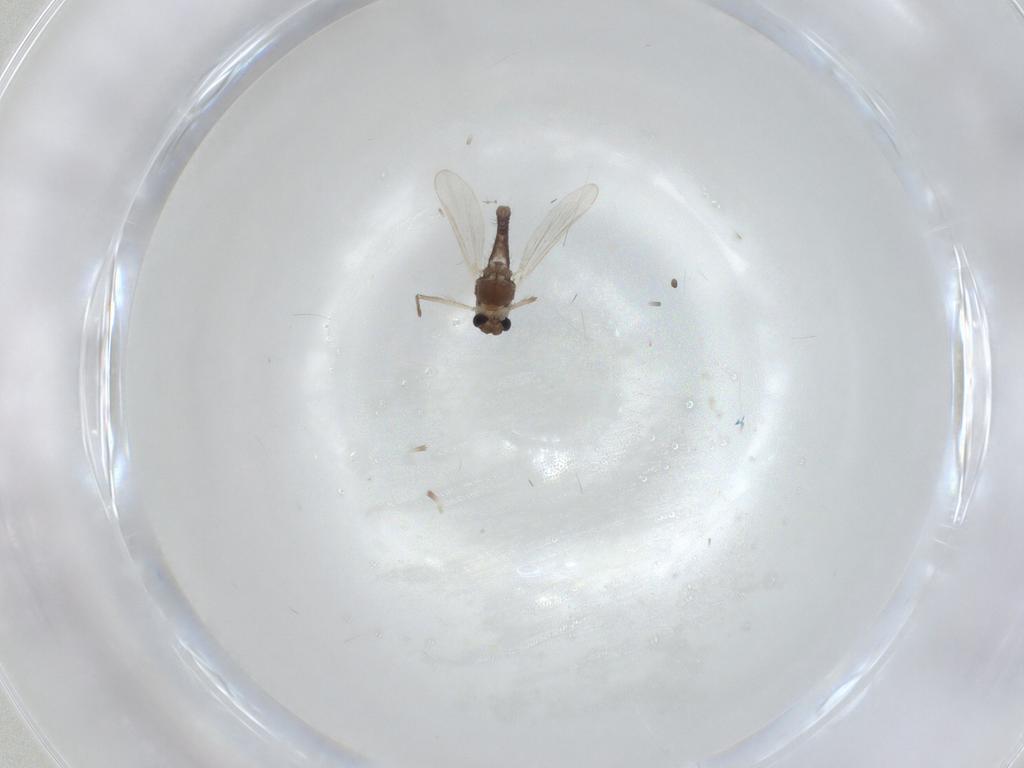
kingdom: Animalia
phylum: Arthropoda
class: Insecta
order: Diptera
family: Chironomidae
